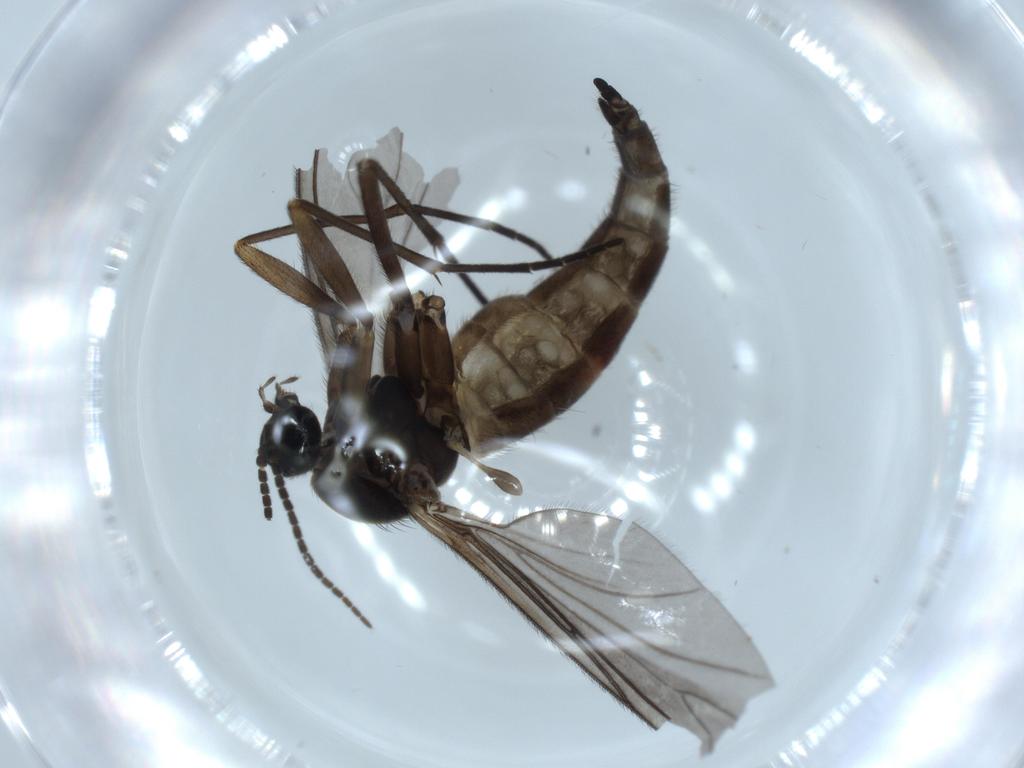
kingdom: Animalia
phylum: Arthropoda
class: Insecta
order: Diptera
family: Sciaridae
